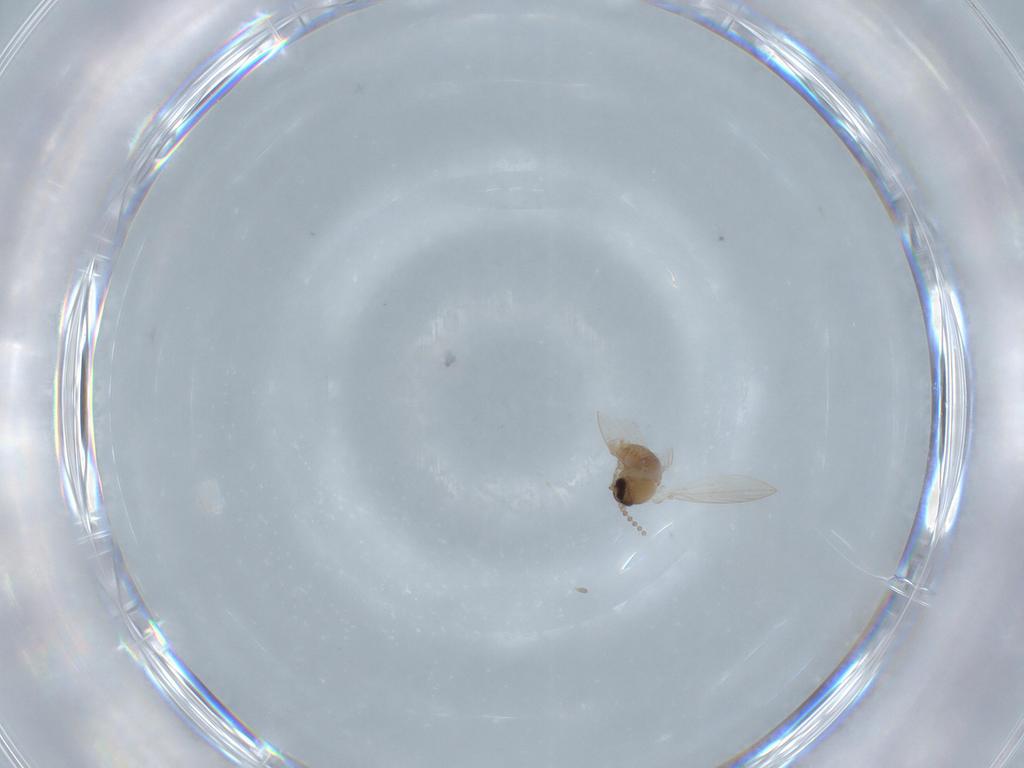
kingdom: Animalia
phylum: Arthropoda
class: Insecta
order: Diptera
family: Psychodidae
